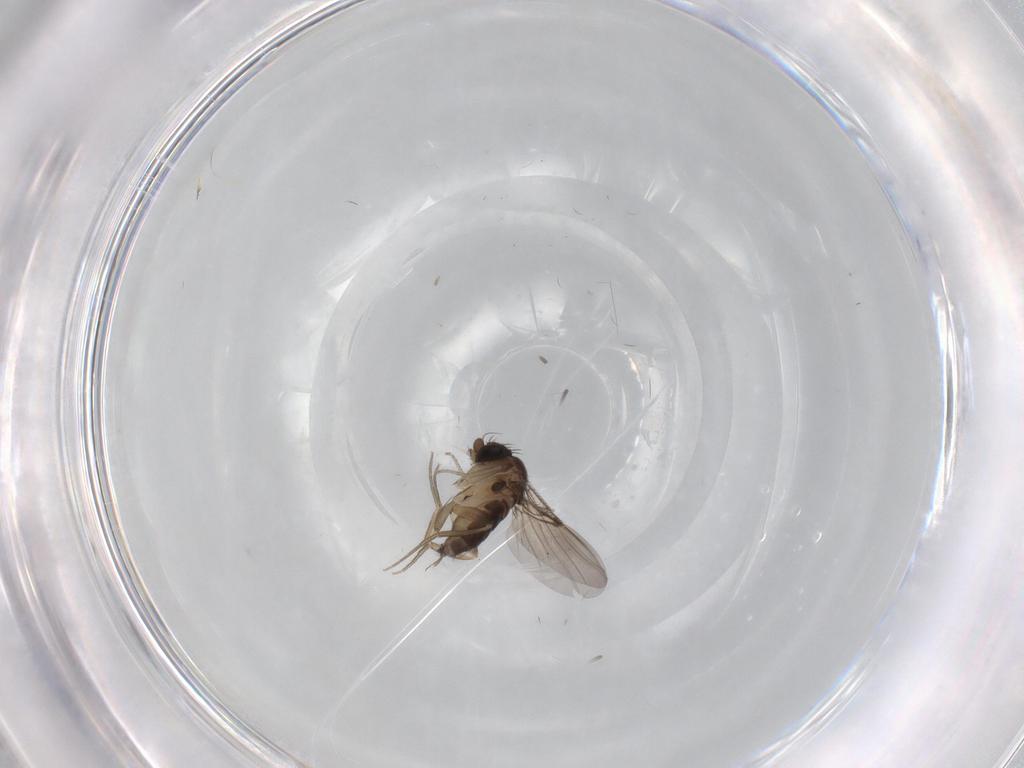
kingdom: Animalia
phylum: Arthropoda
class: Insecta
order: Diptera
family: Phoridae
